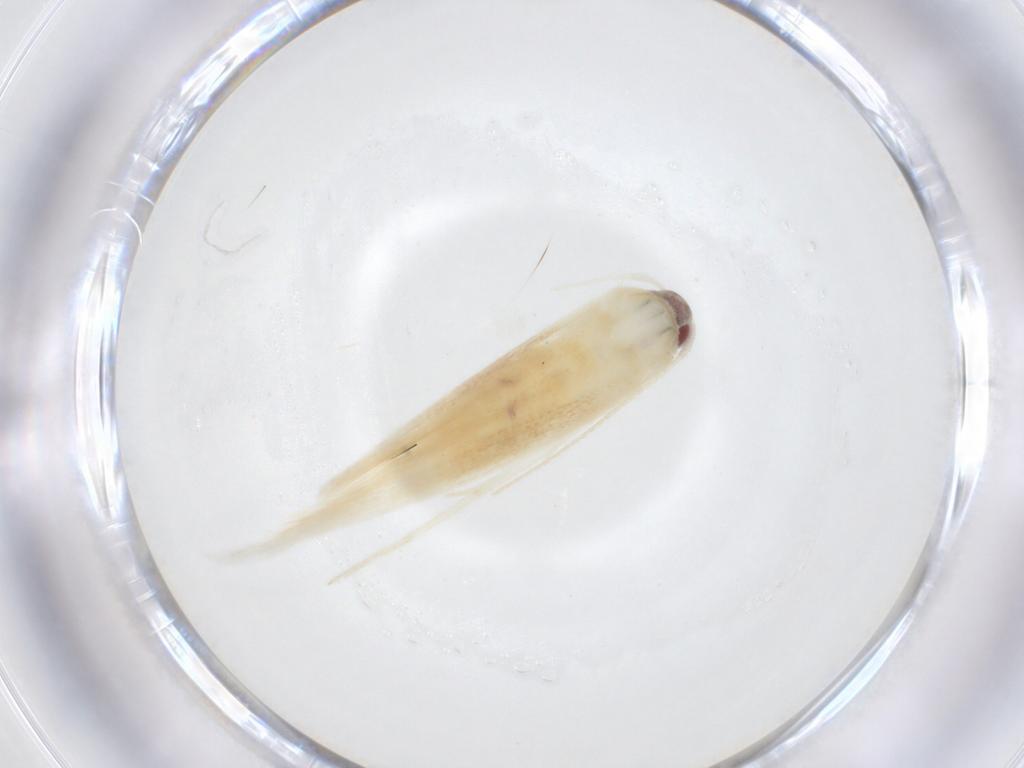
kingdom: Animalia
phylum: Arthropoda
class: Insecta
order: Lepidoptera
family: Cosmopterigidae
